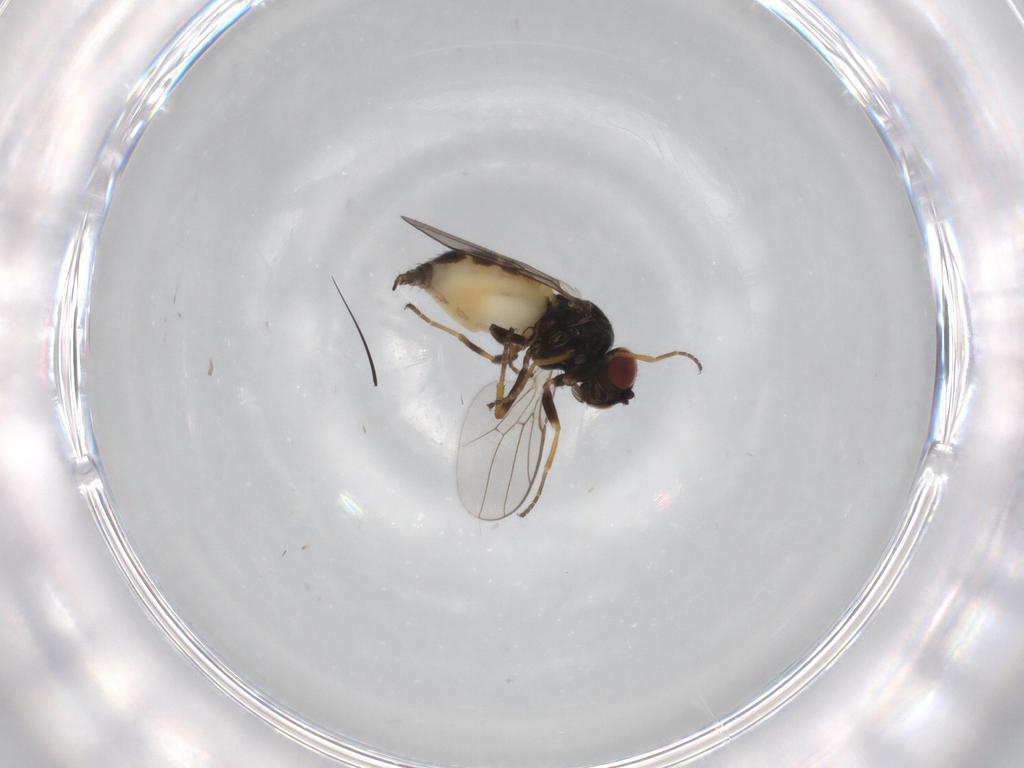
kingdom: Animalia
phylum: Arthropoda
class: Insecta
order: Diptera
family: Chloropidae
